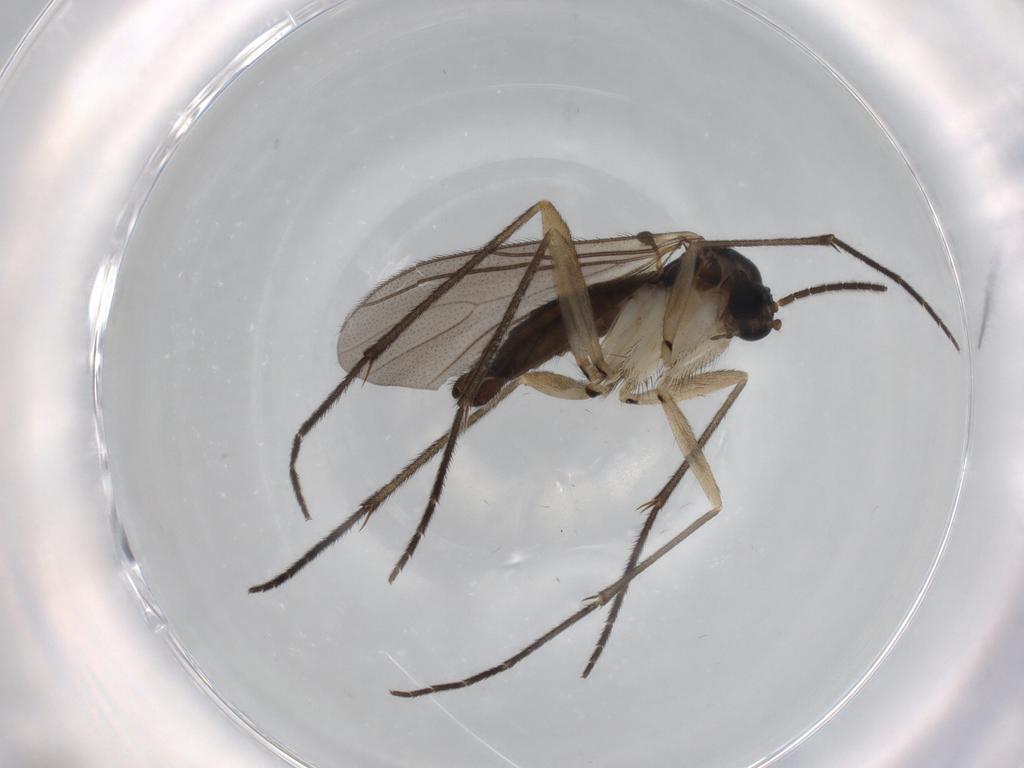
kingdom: Animalia
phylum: Arthropoda
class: Insecta
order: Diptera
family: Sciaridae
